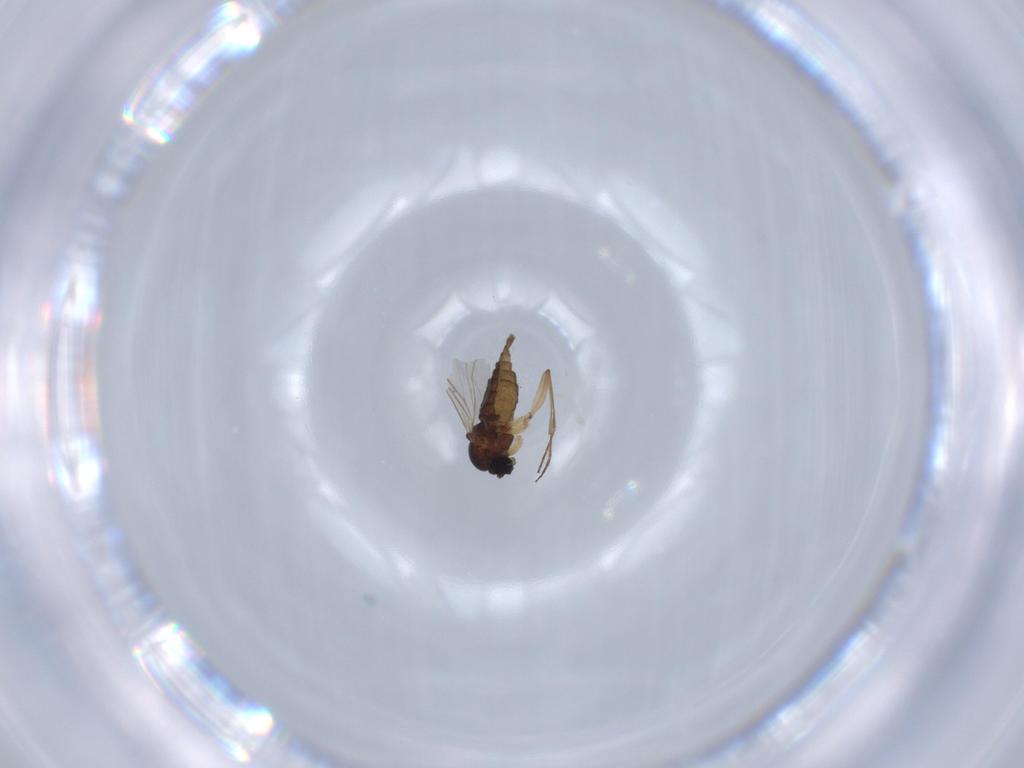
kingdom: Animalia
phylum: Arthropoda
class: Insecta
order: Diptera
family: Sciaridae
